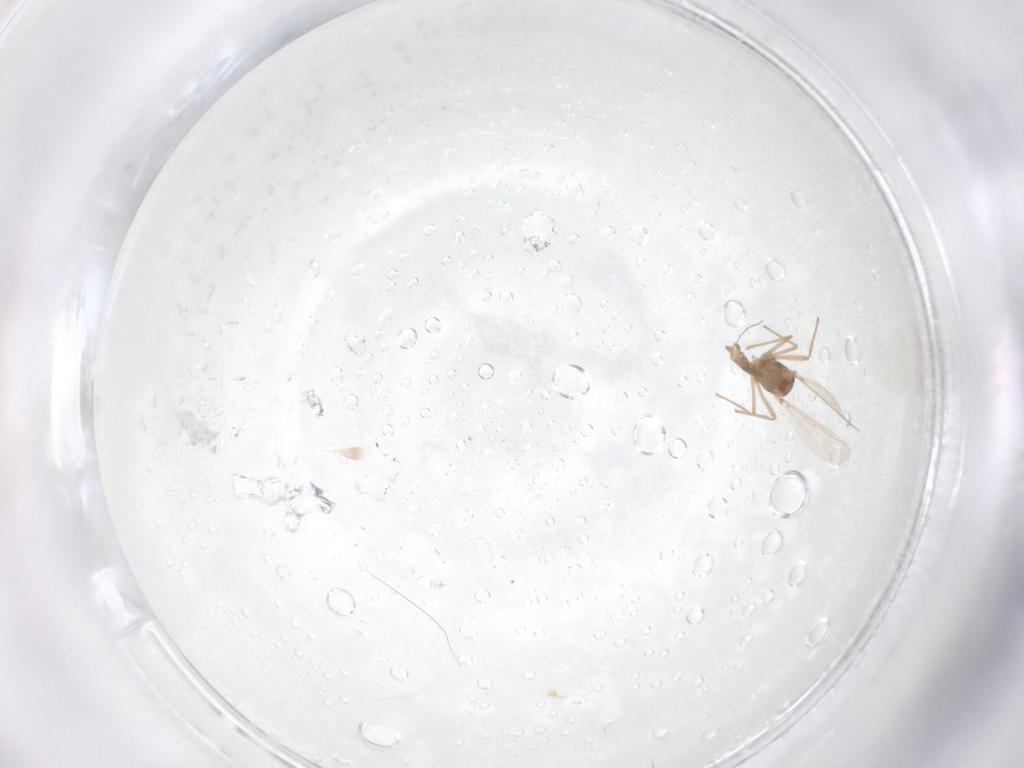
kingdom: Animalia
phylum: Arthropoda
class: Insecta
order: Diptera
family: Chironomidae
